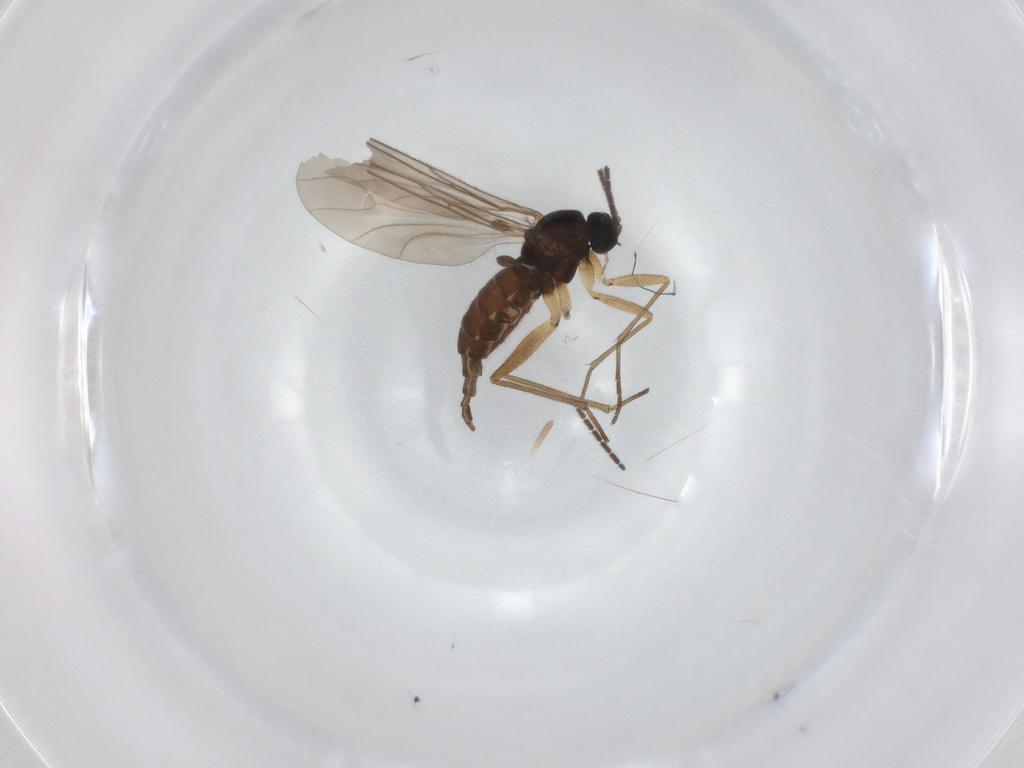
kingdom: Animalia
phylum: Arthropoda
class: Insecta
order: Diptera
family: Sciaridae
